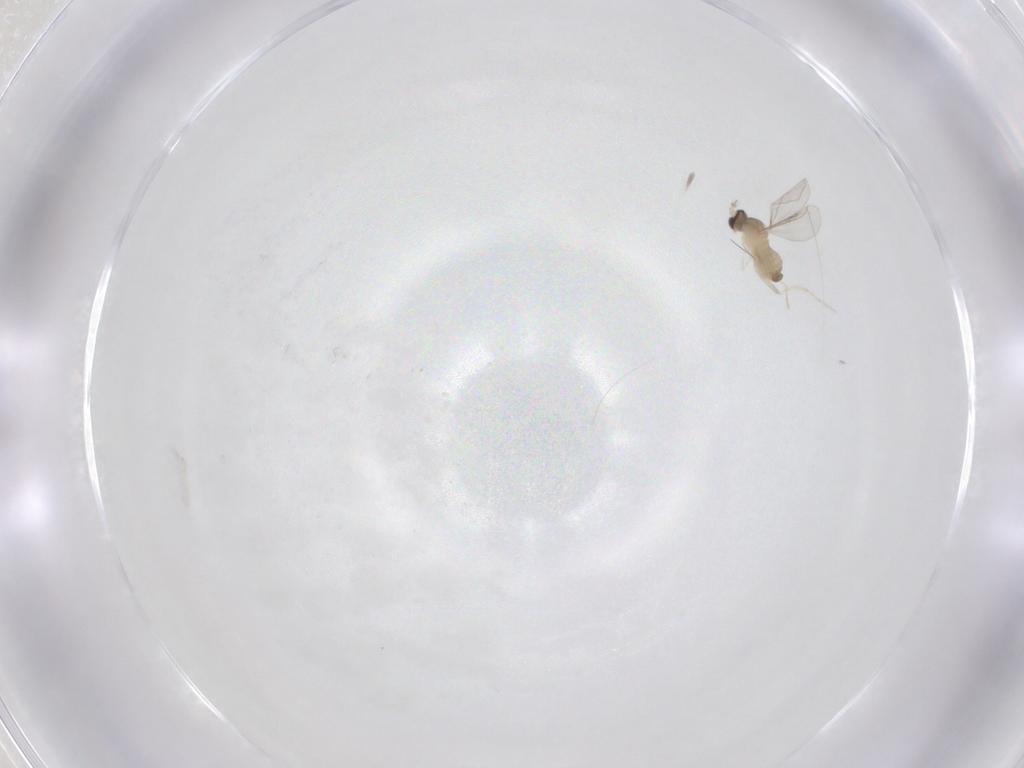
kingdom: Animalia
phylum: Arthropoda
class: Insecta
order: Diptera
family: Cecidomyiidae
